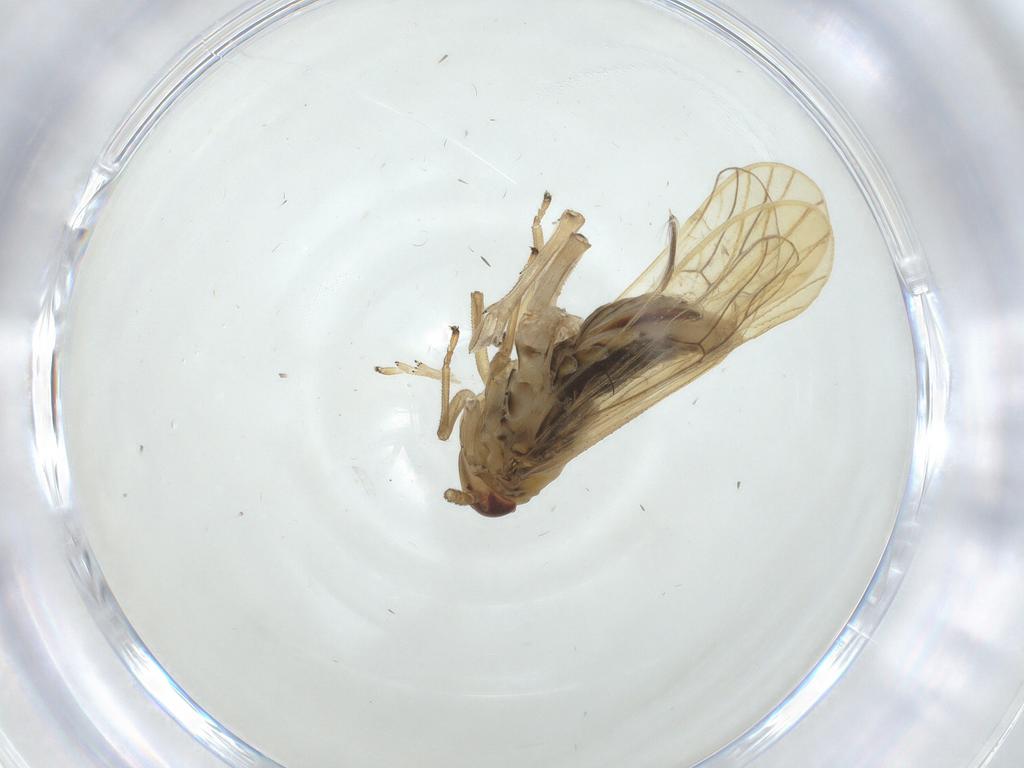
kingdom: Animalia
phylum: Arthropoda
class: Insecta
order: Hemiptera
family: Delphacidae
